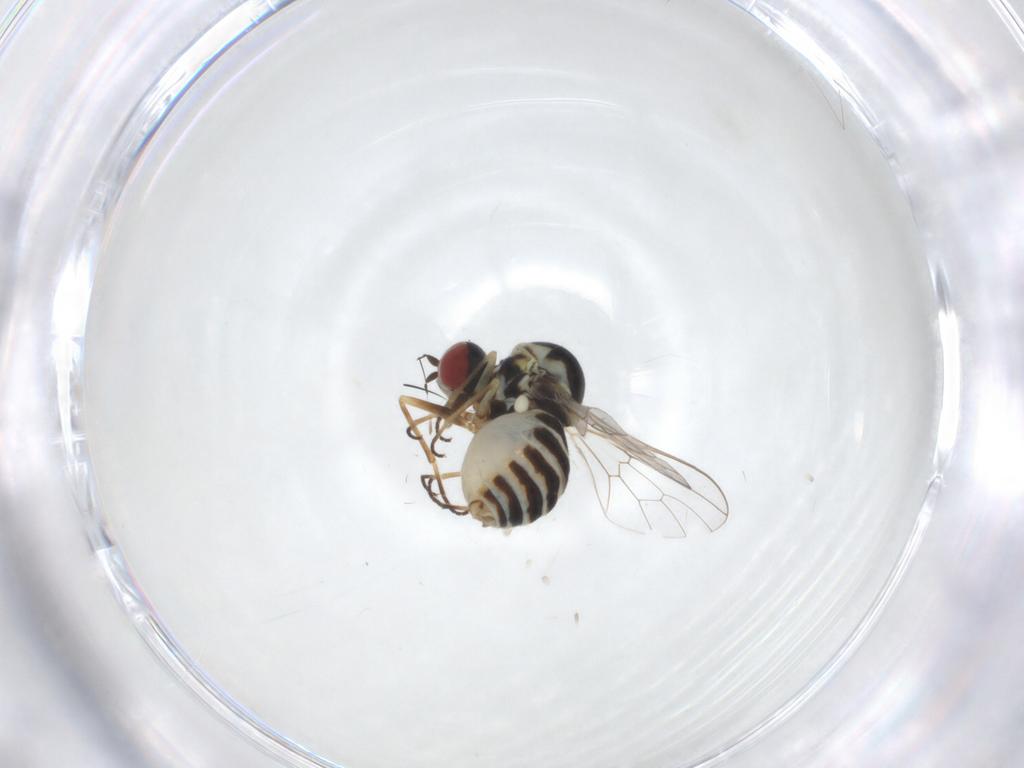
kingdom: Animalia
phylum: Arthropoda
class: Insecta
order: Diptera
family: Bombyliidae
